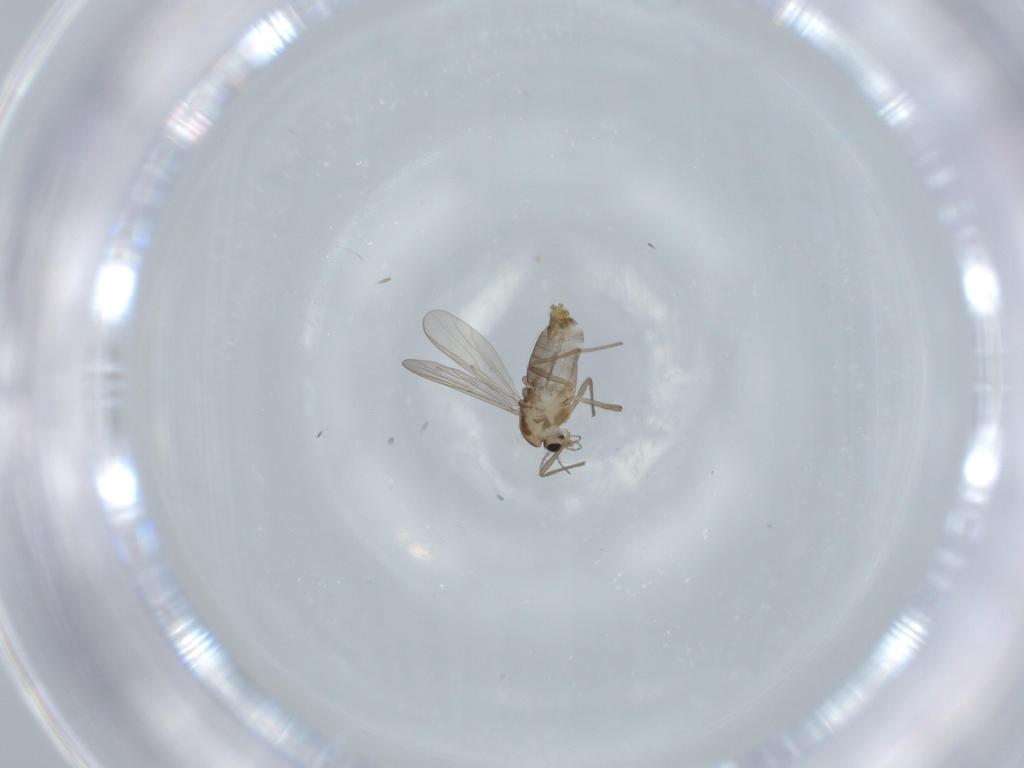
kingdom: Animalia
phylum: Arthropoda
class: Insecta
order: Diptera
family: Chironomidae
